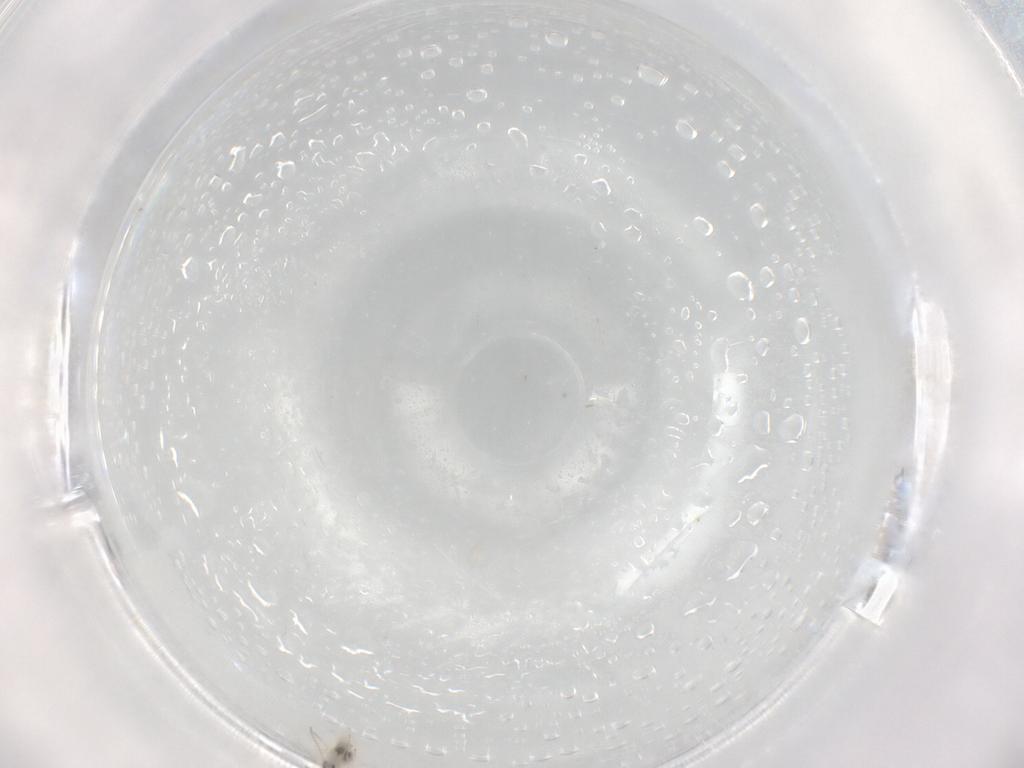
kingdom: Animalia
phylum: Arthropoda
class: Insecta
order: Diptera
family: Cecidomyiidae
